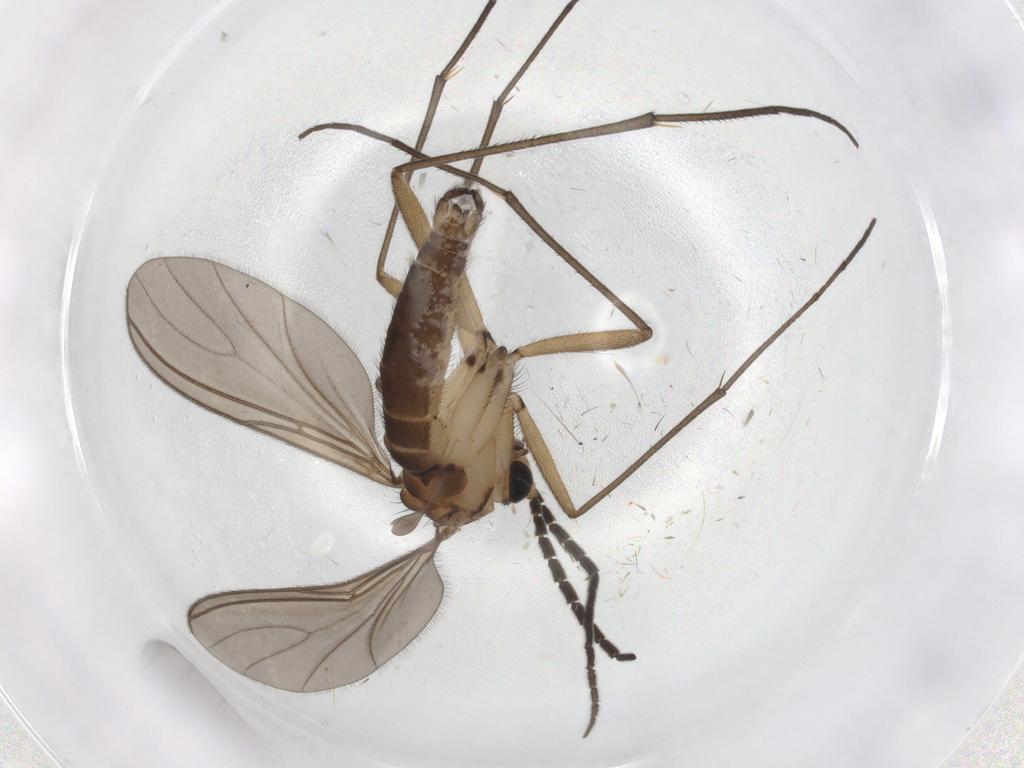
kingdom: Animalia
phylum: Arthropoda
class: Insecta
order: Diptera
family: Sciaridae
